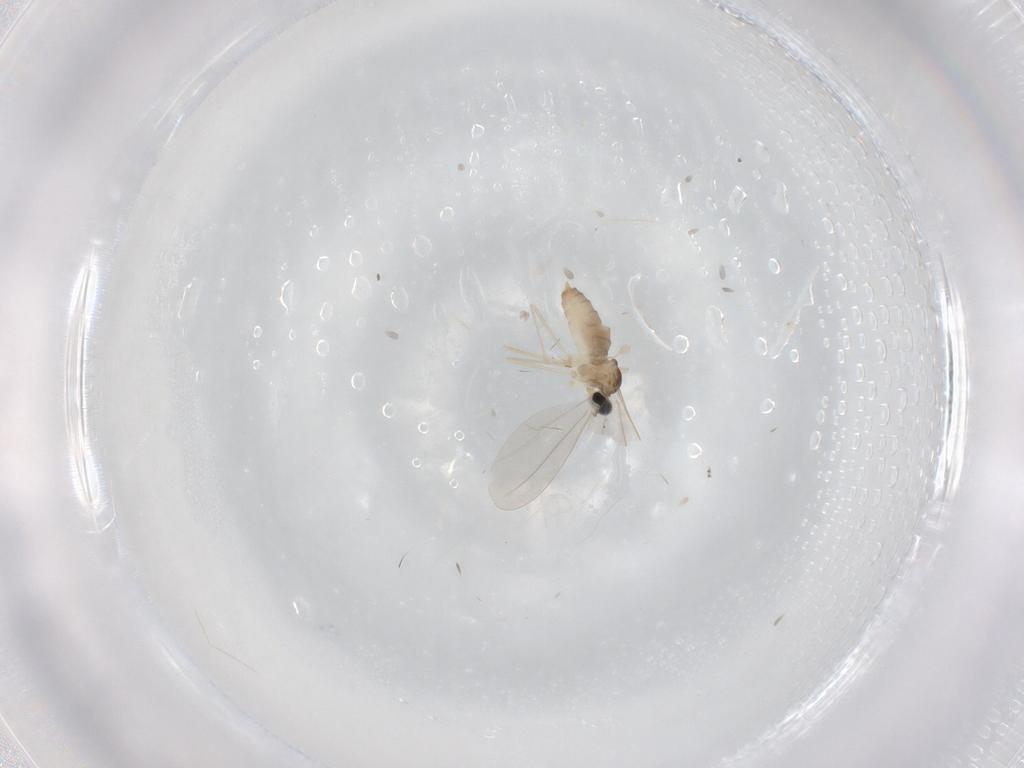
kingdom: Animalia
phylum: Arthropoda
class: Insecta
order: Diptera
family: Cecidomyiidae
